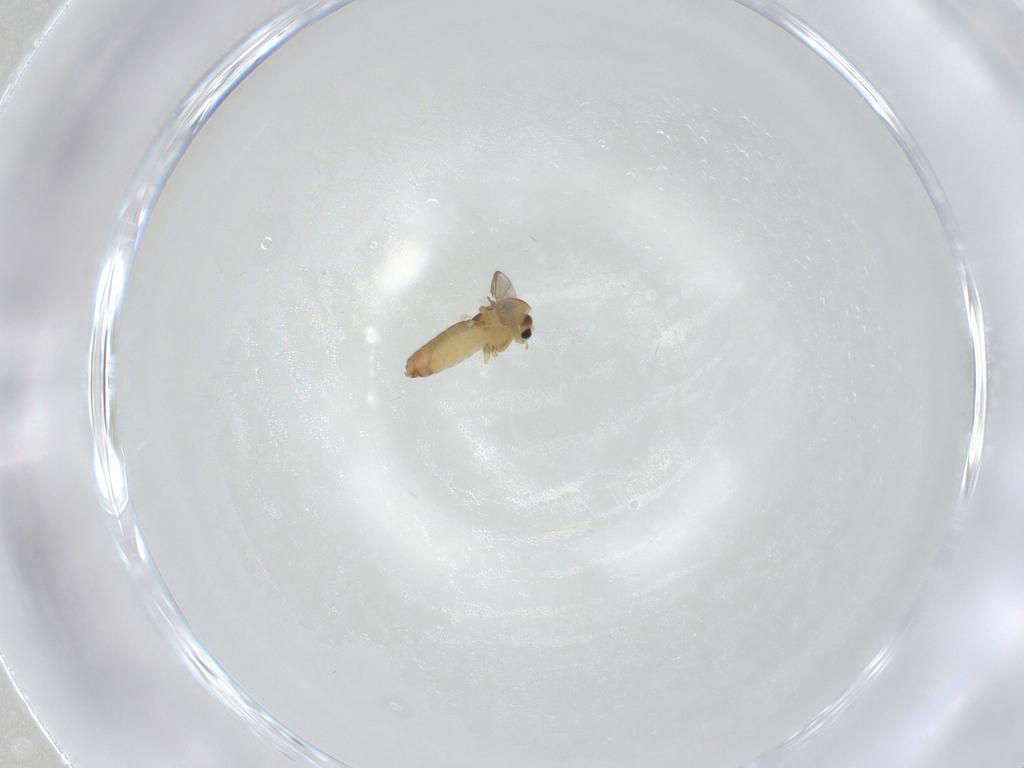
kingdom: Animalia
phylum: Arthropoda
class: Insecta
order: Diptera
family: Chironomidae
